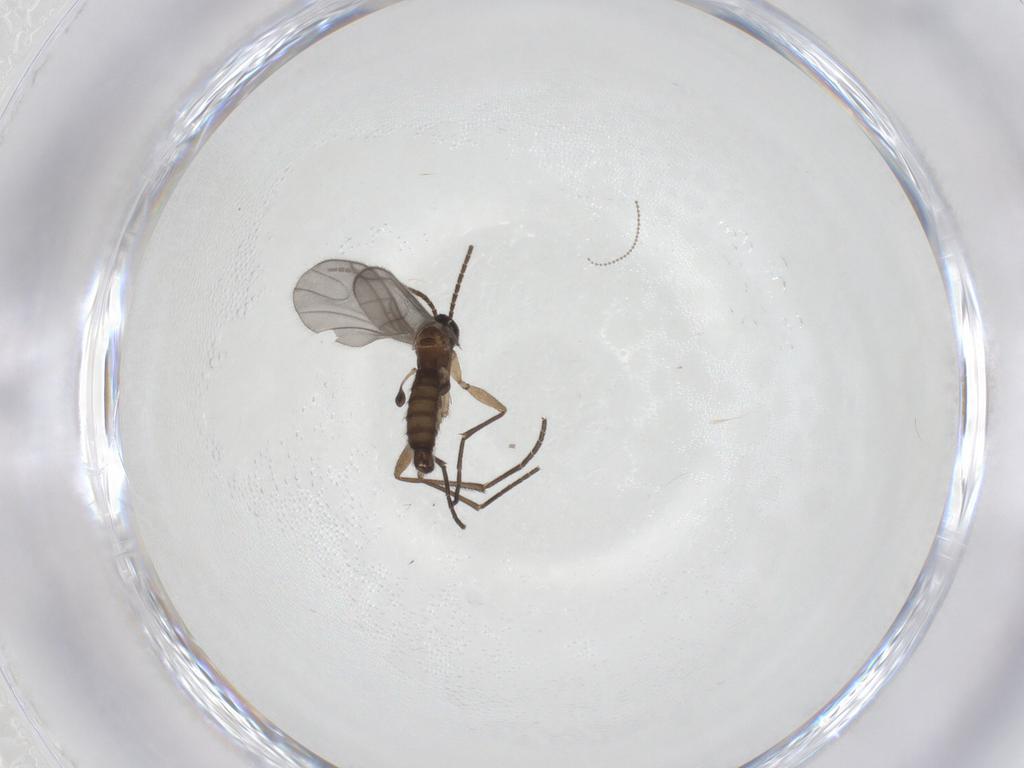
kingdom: Animalia
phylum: Arthropoda
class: Insecta
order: Diptera
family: Sciaridae
